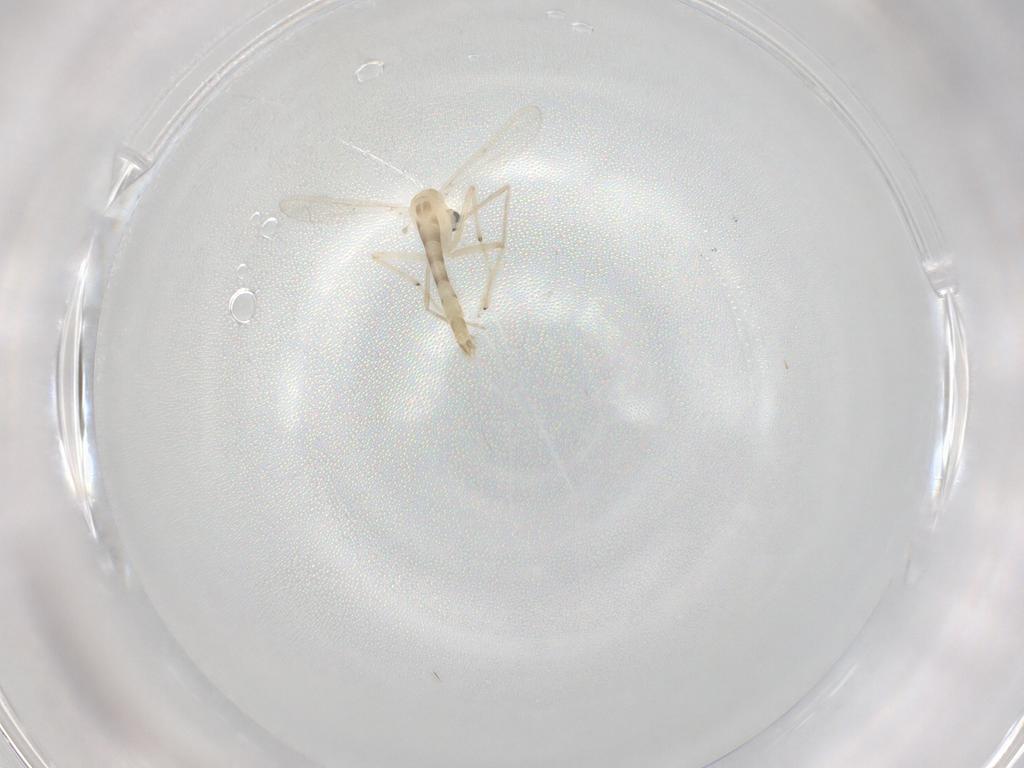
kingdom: Animalia
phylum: Arthropoda
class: Insecta
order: Diptera
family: Chironomidae
